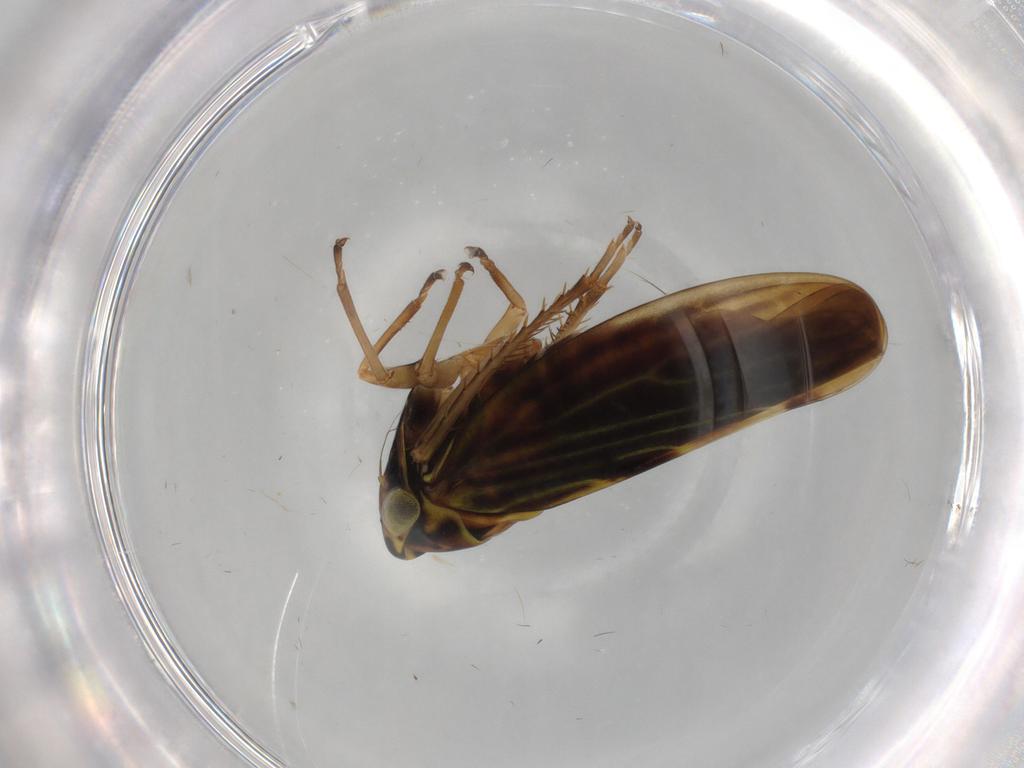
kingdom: Animalia
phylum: Arthropoda
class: Insecta
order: Hemiptera
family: Cicadellidae
